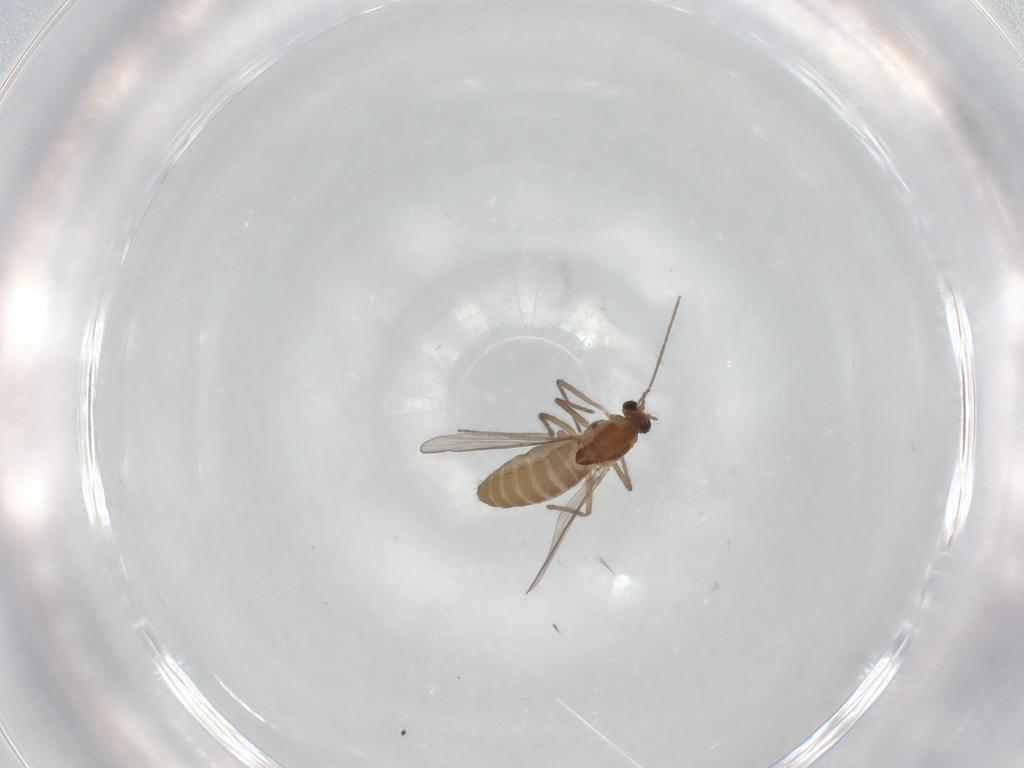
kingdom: Animalia
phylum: Arthropoda
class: Insecta
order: Diptera
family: Chironomidae
